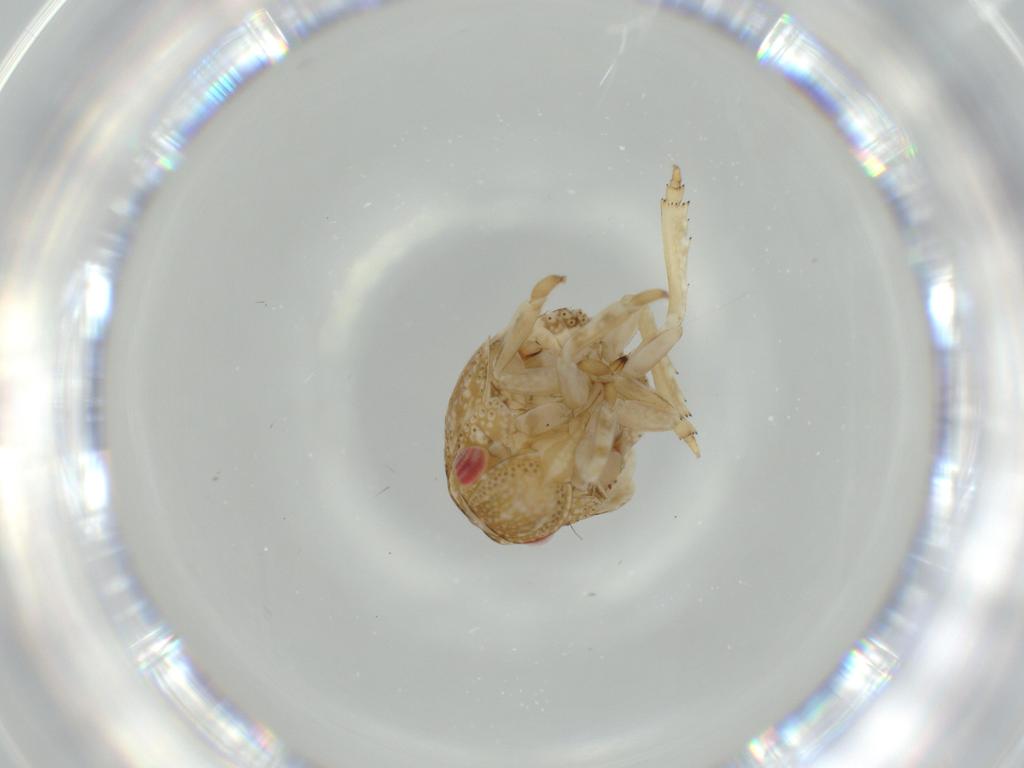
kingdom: Animalia
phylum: Arthropoda
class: Insecta
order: Hemiptera
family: Acanaloniidae
